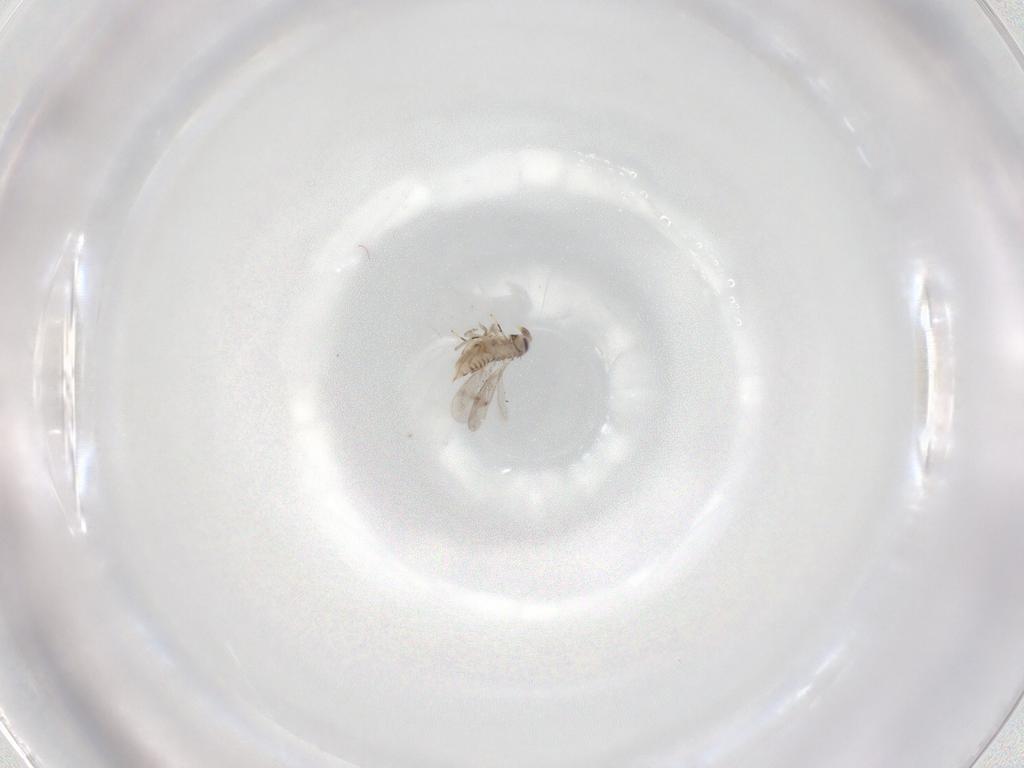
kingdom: Animalia
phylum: Arthropoda
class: Insecta
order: Hymenoptera
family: Aphelinidae
